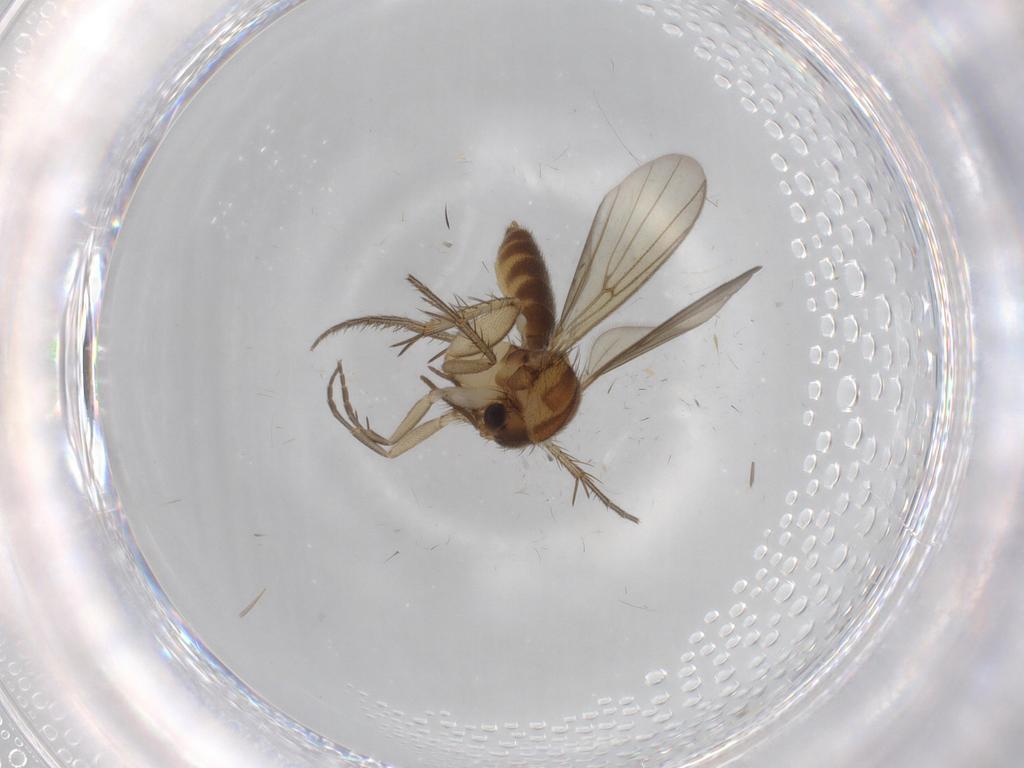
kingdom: Animalia
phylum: Arthropoda
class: Insecta
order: Diptera
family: Mycetophilidae
